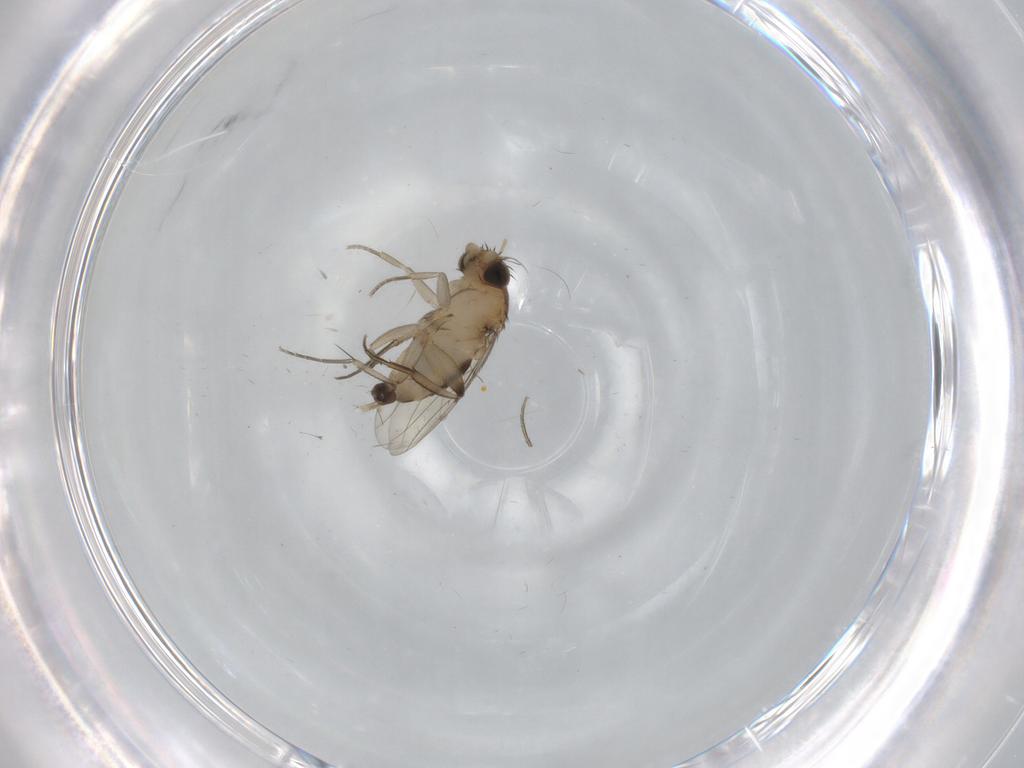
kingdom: Animalia
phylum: Arthropoda
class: Insecta
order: Diptera
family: Phoridae
